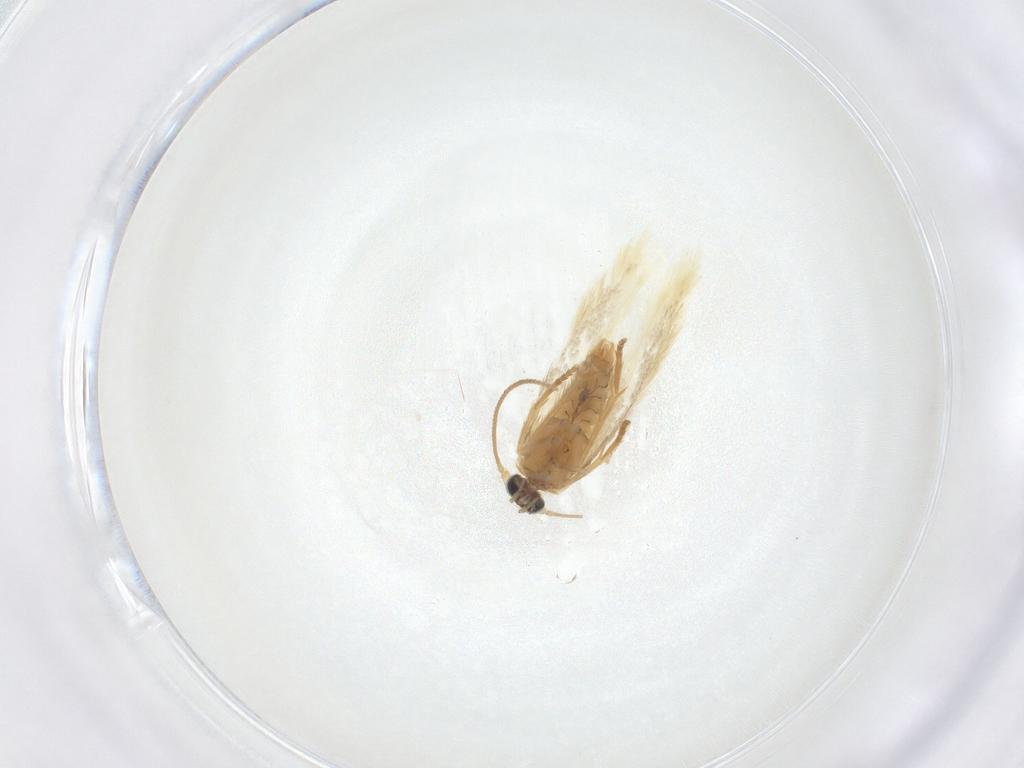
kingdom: Animalia
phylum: Arthropoda
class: Insecta
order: Lepidoptera
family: Nepticulidae
